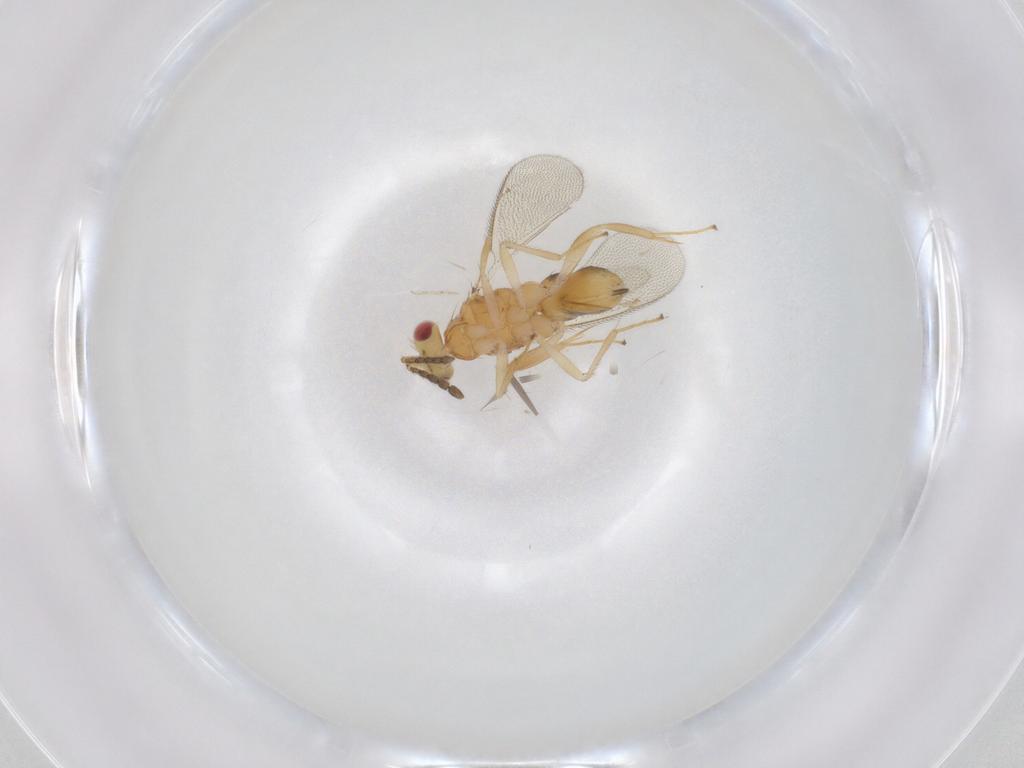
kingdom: Animalia
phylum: Arthropoda
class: Insecta
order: Hymenoptera
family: Eulophidae
